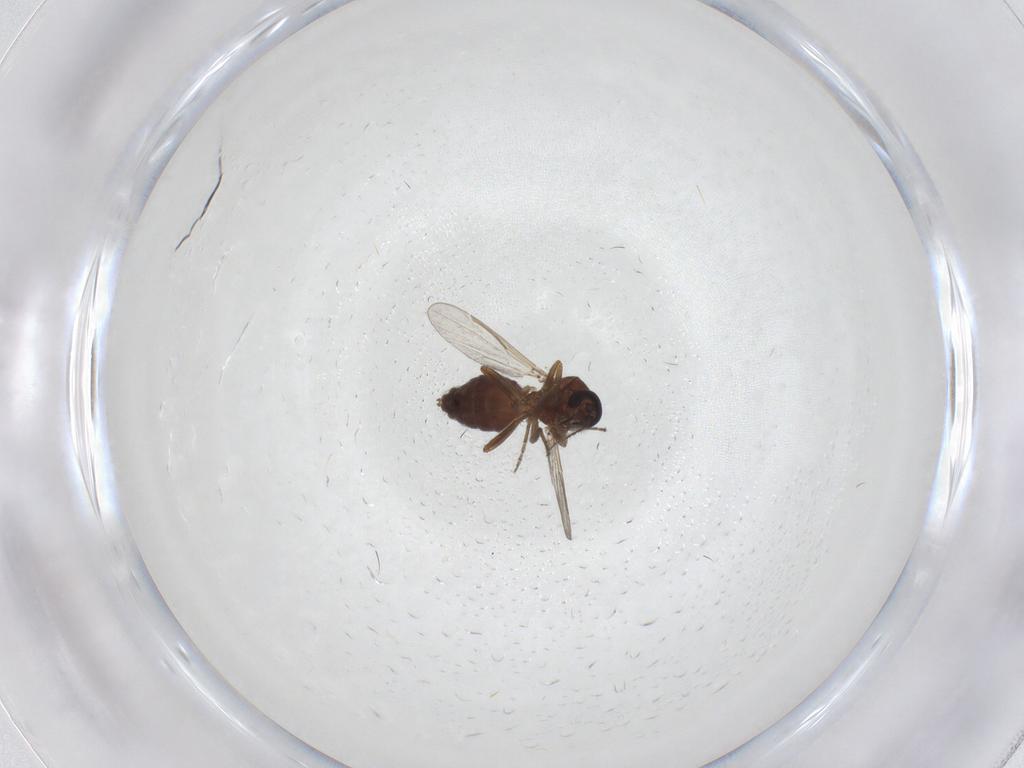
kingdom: Animalia
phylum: Arthropoda
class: Insecta
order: Diptera
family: Ceratopogonidae
